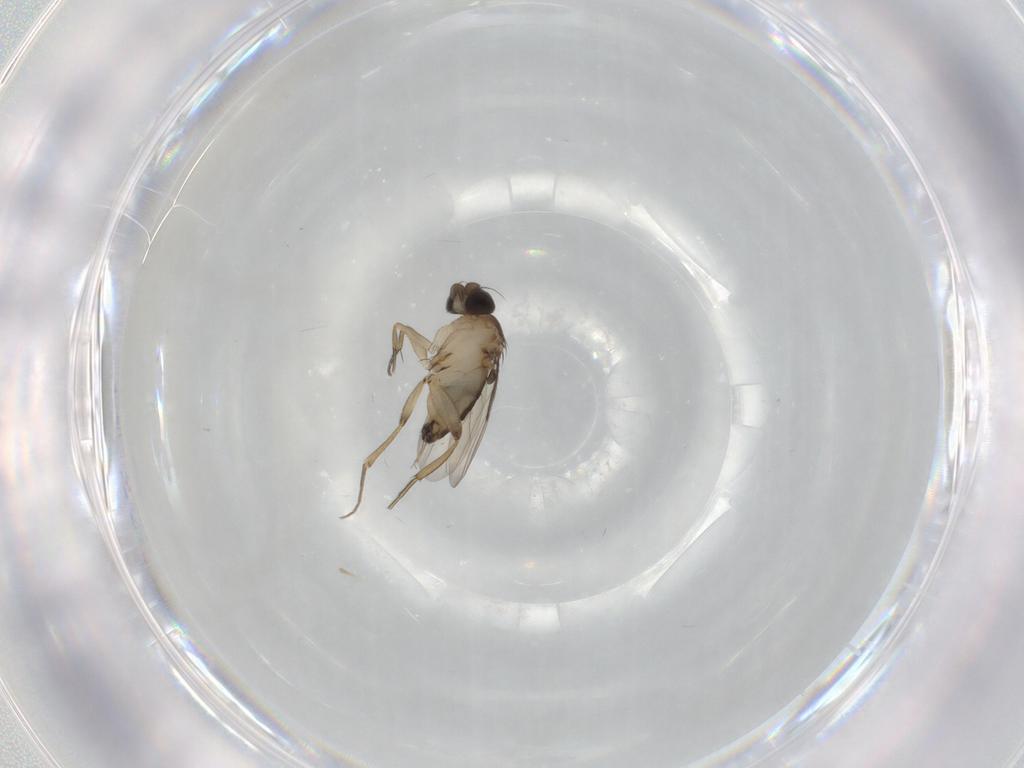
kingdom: Animalia
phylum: Arthropoda
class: Insecta
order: Diptera
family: Phoridae
